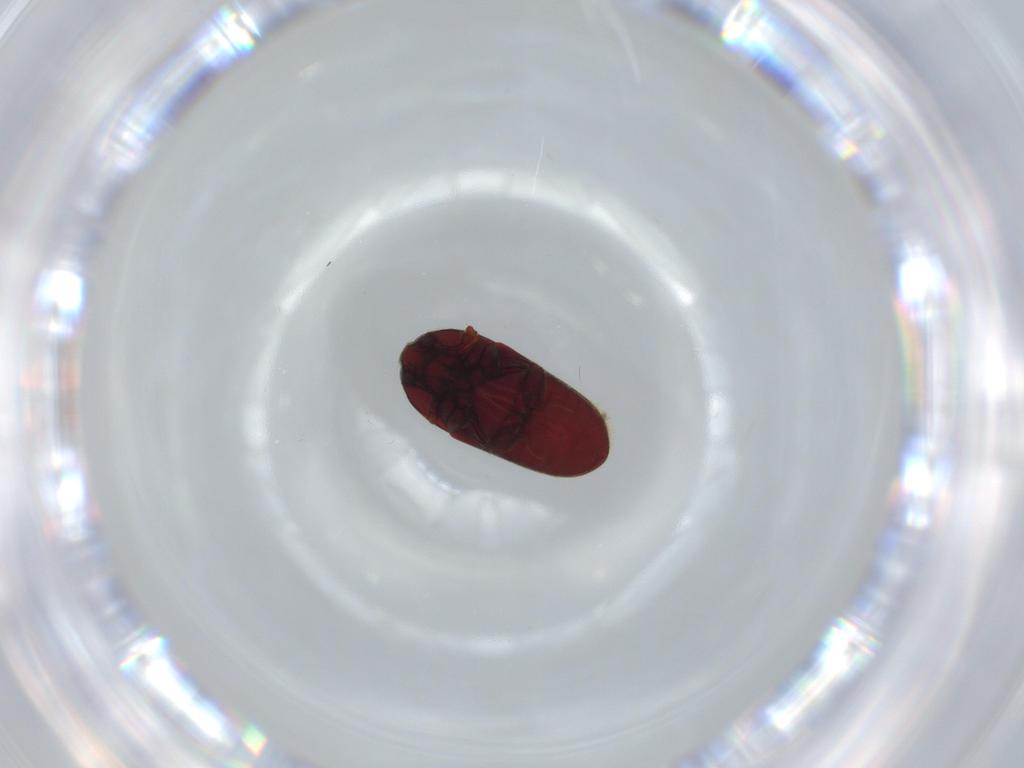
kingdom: Animalia
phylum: Arthropoda
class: Insecta
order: Coleoptera
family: Throscidae
